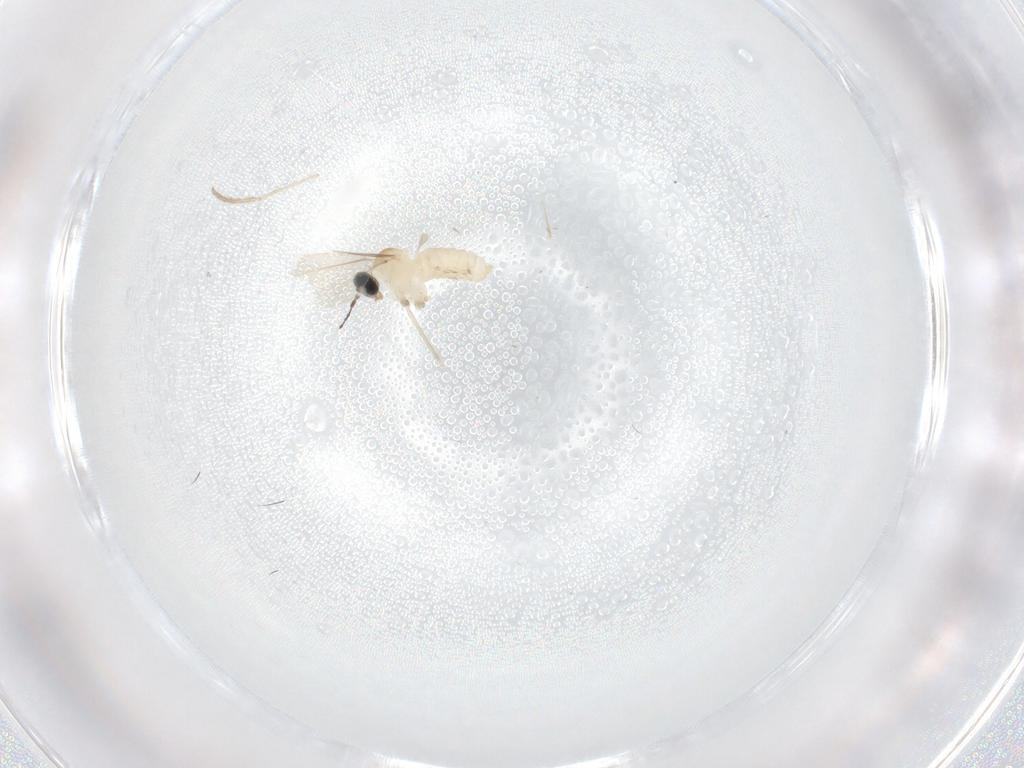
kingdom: Animalia
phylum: Arthropoda
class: Insecta
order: Diptera
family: Cecidomyiidae
